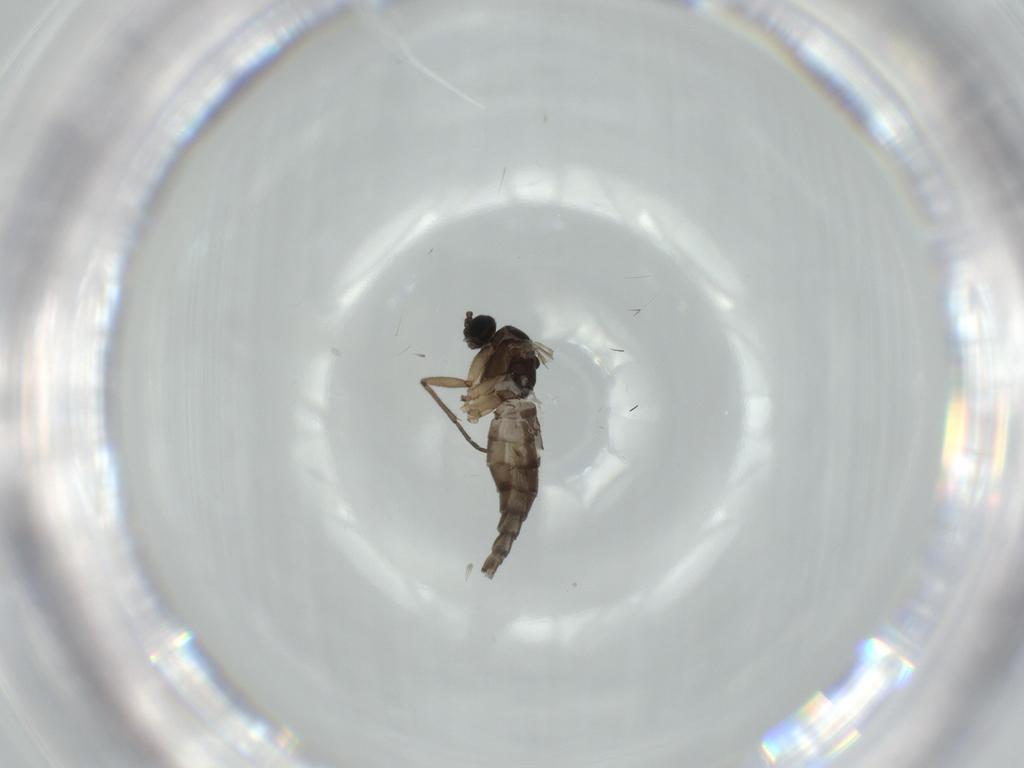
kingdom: Animalia
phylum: Arthropoda
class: Insecta
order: Diptera
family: Sciaridae
